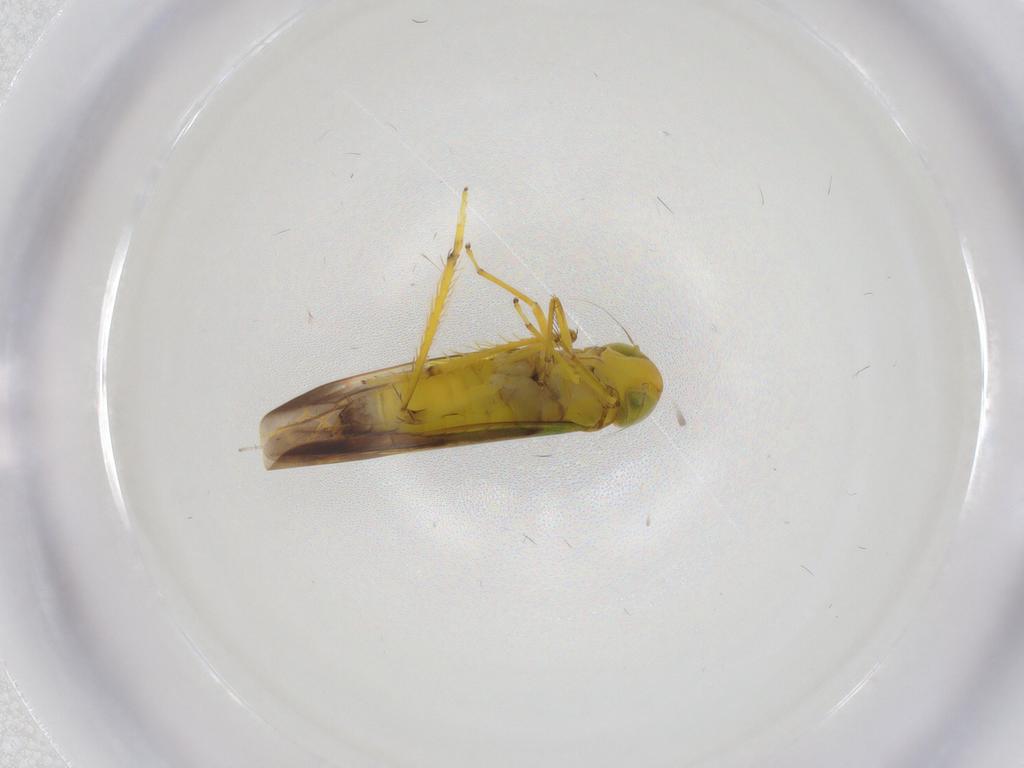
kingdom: Animalia
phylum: Arthropoda
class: Insecta
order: Hemiptera
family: Cicadellidae
